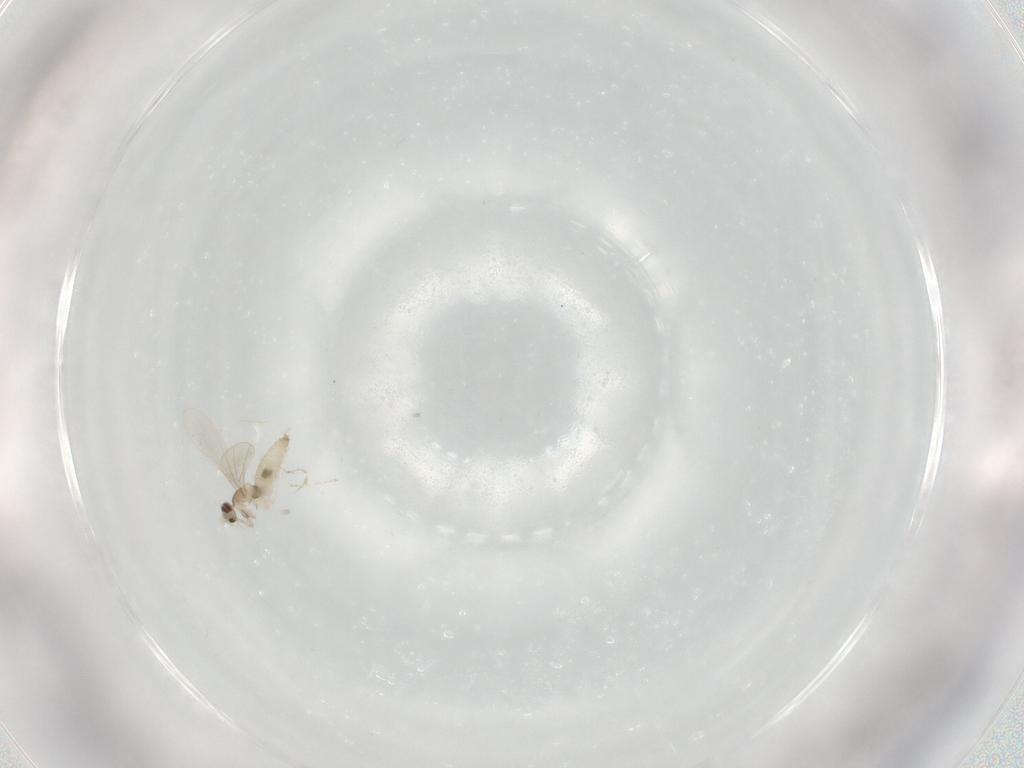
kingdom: Animalia
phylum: Arthropoda
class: Insecta
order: Diptera
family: Cecidomyiidae
